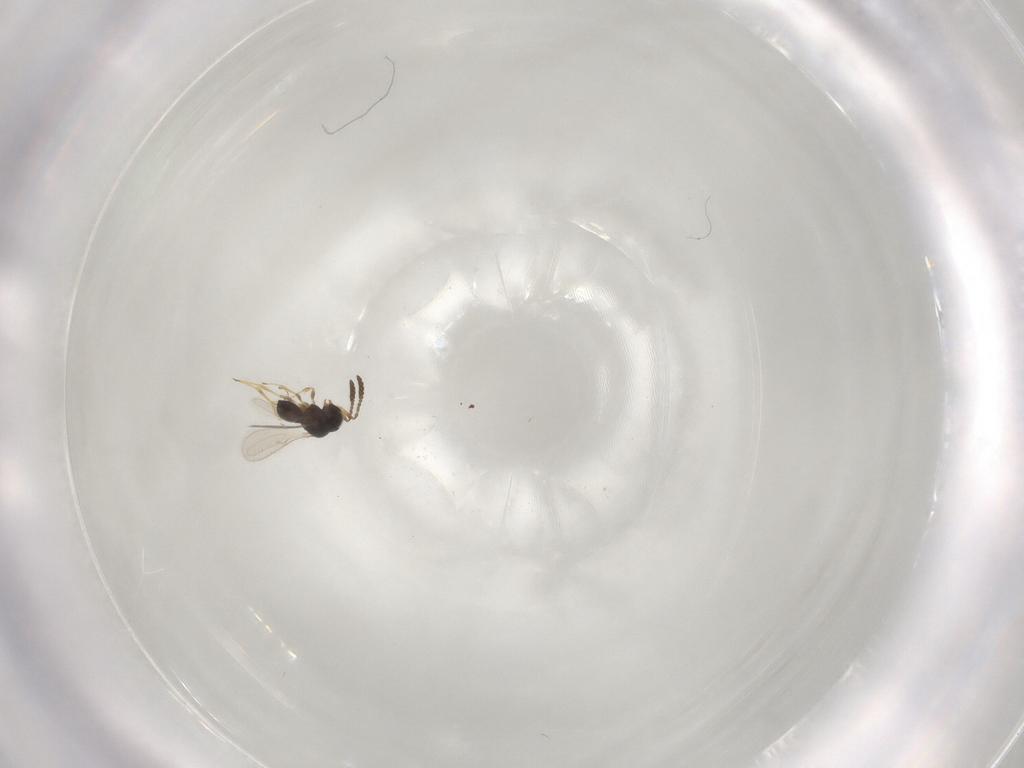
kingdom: Animalia
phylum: Arthropoda
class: Insecta
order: Hymenoptera
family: Scelionidae
